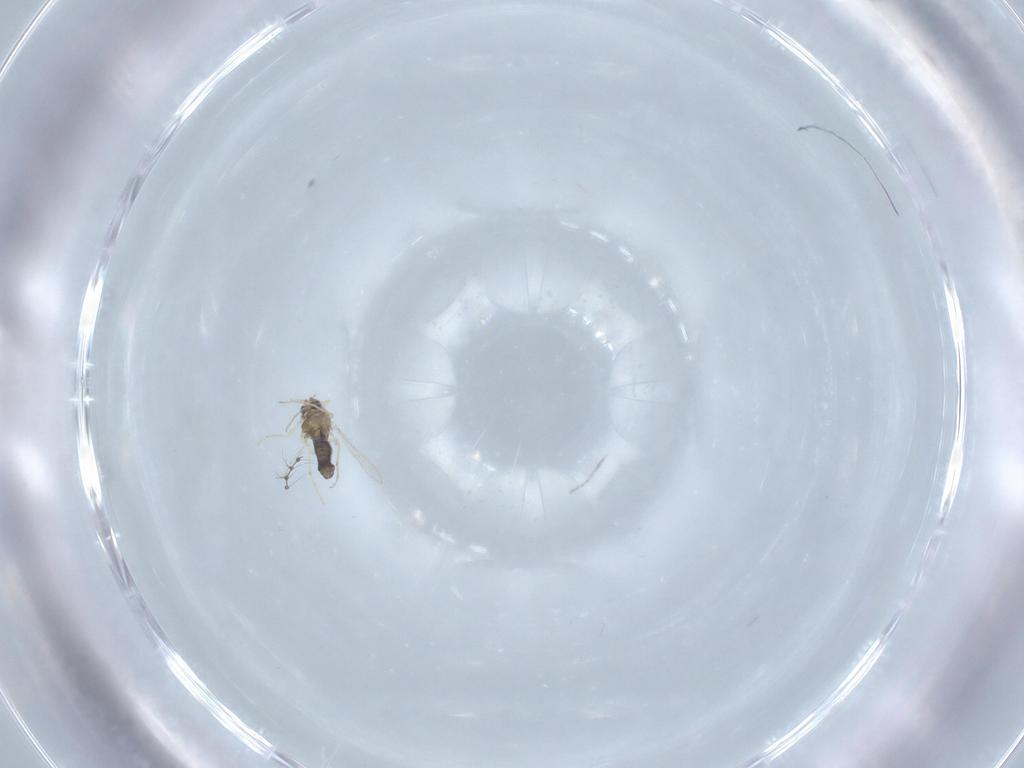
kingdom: Animalia
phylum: Arthropoda
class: Insecta
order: Diptera
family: Chironomidae
